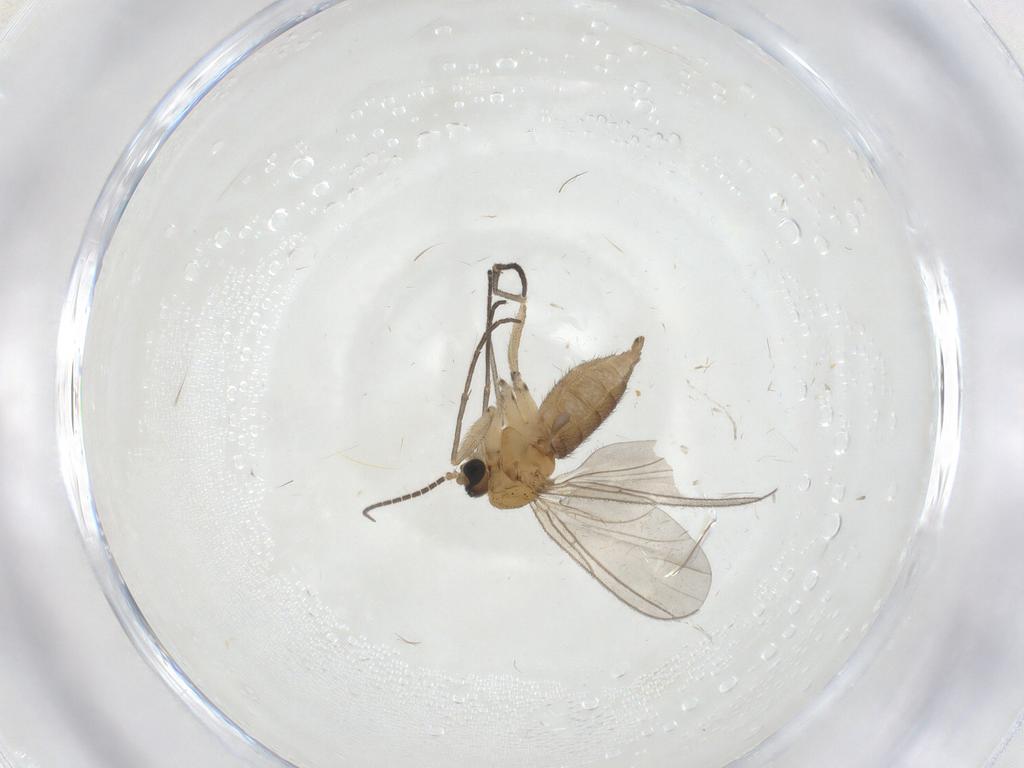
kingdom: Animalia
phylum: Arthropoda
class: Insecta
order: Diptera
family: Sciaridae
